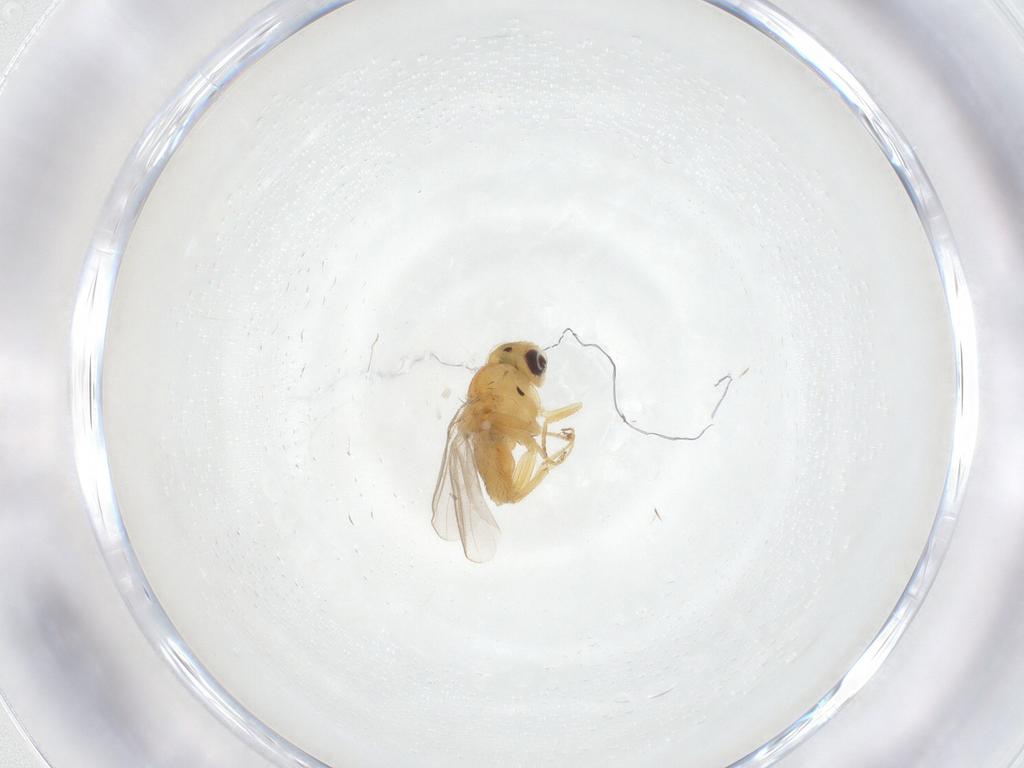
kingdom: Animalia
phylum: Arthropoda
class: Insecta
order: Diptera
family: Chloropidae
